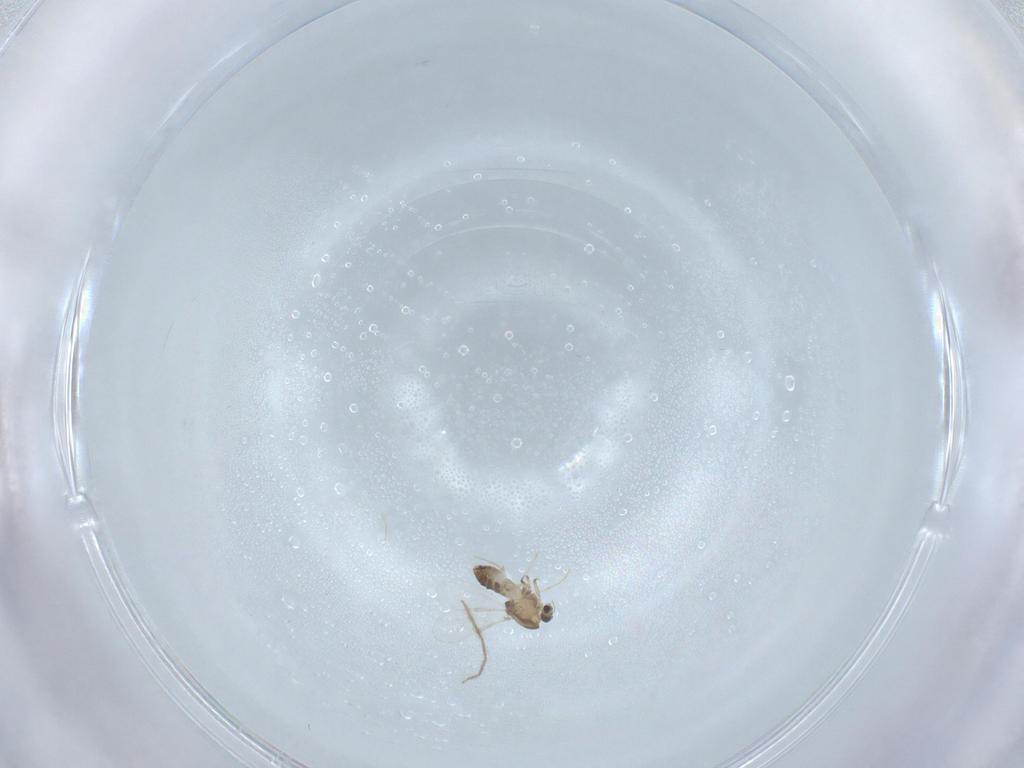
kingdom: Animalia
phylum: Arthropoda
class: Insecta
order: Diptera
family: Chironomidae
